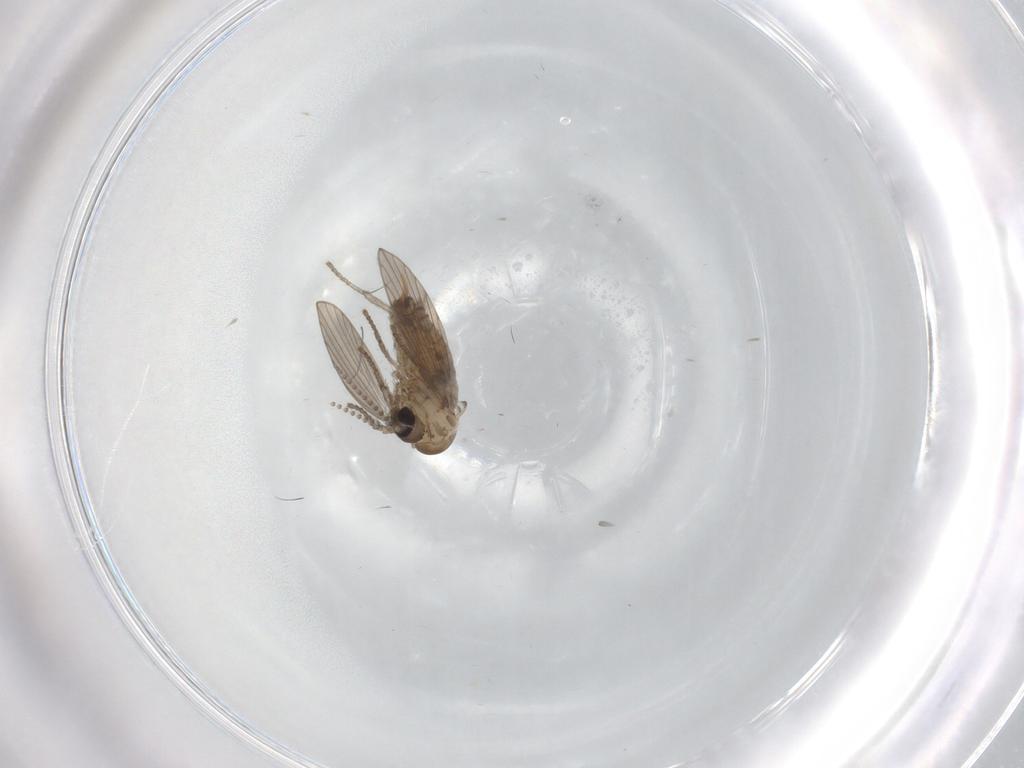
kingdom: Animalia
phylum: Arthropoda
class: Insecta
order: Diptera
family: Psychodidae
